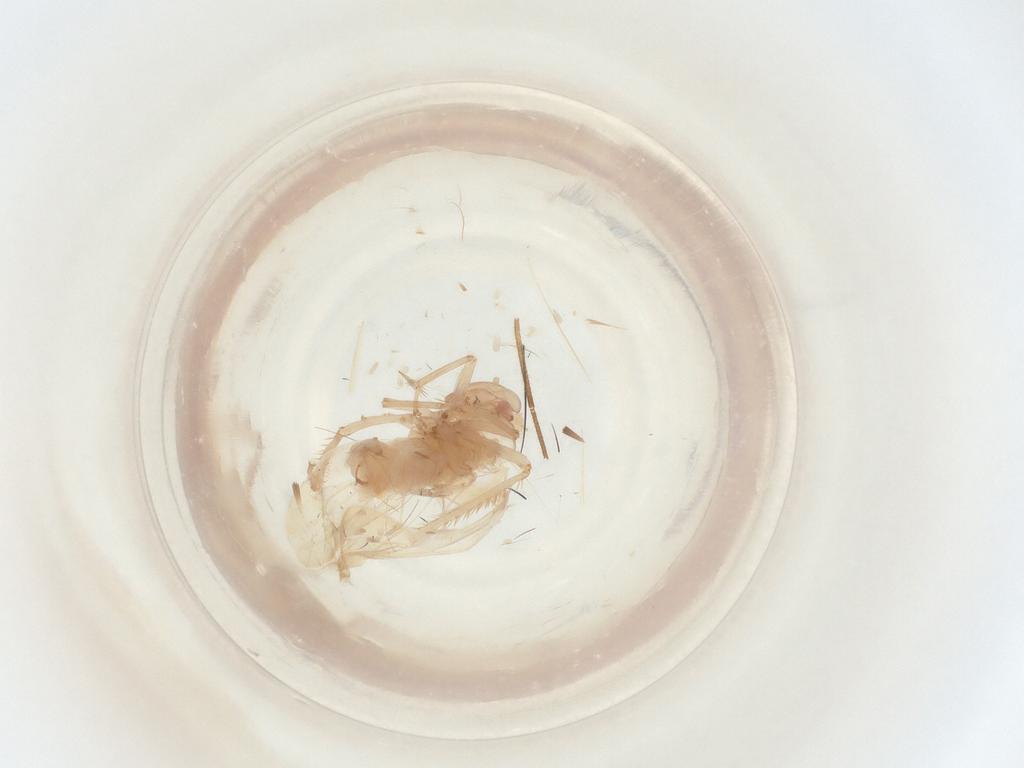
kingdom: Animalia
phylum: Arthropoda
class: Insecta
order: Hemiptera
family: Cicadellidae
